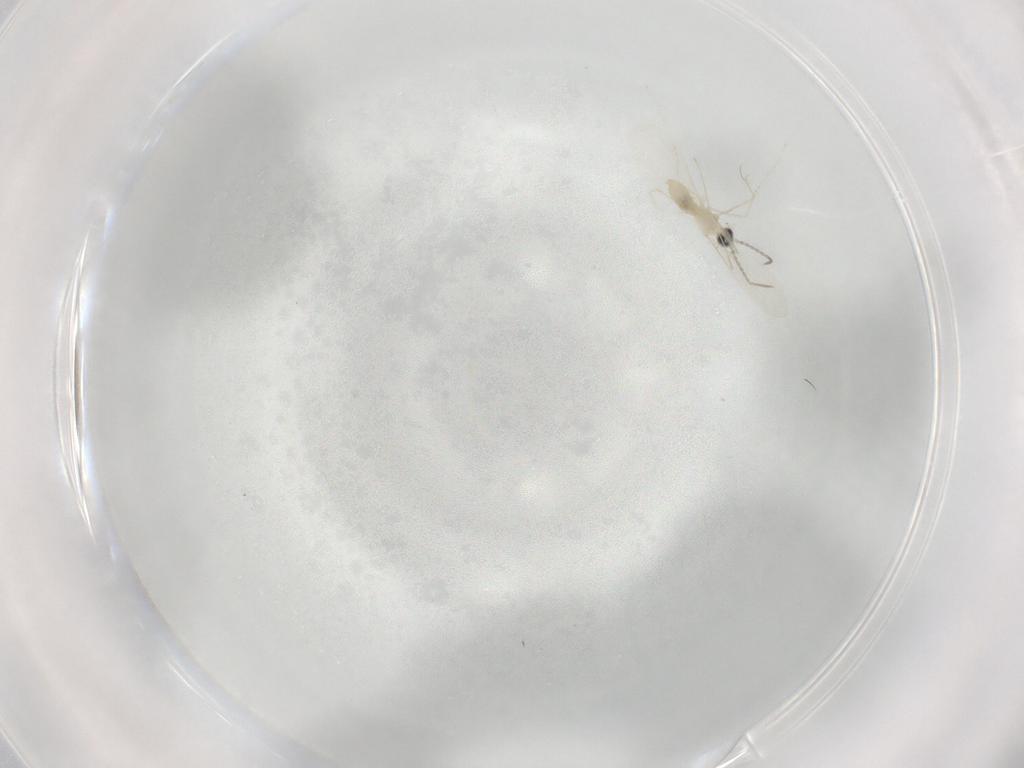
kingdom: Animalia
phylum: Arthropoda
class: Insecta
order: Diptera
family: Cecidomyiidae
